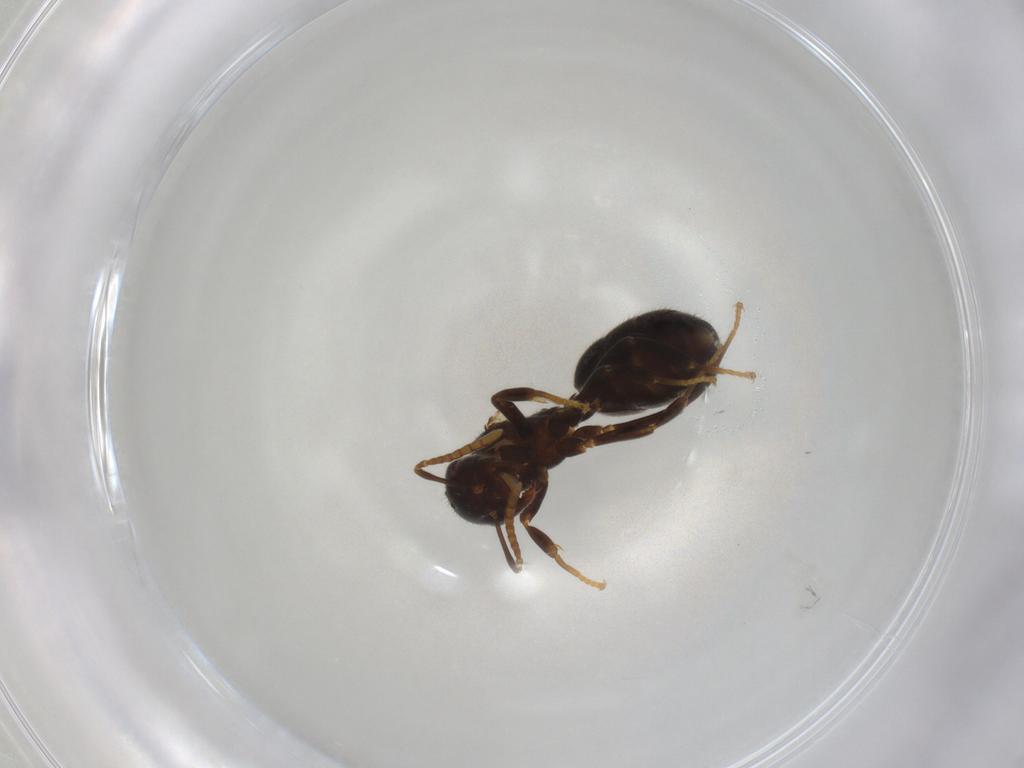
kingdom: Animalia
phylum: Arthropoda
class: Insecta
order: Hymenoptera
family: Formicidae
